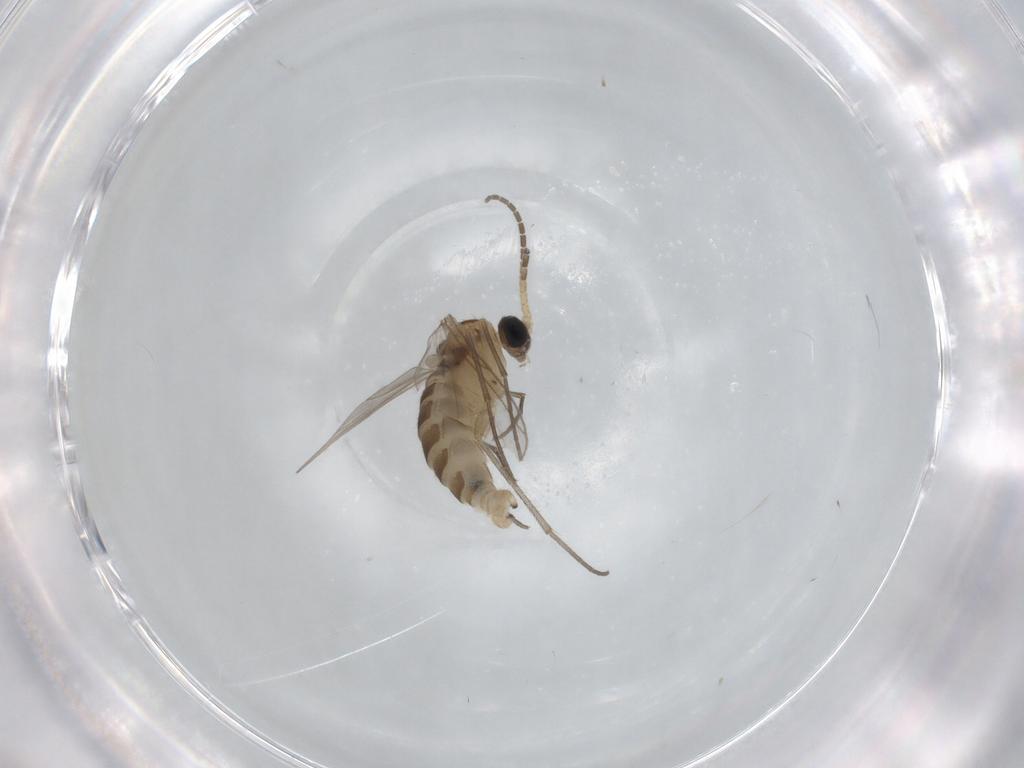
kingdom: Animalia
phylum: Arthropoda
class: Insecta
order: Diptera
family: Sciaridae
